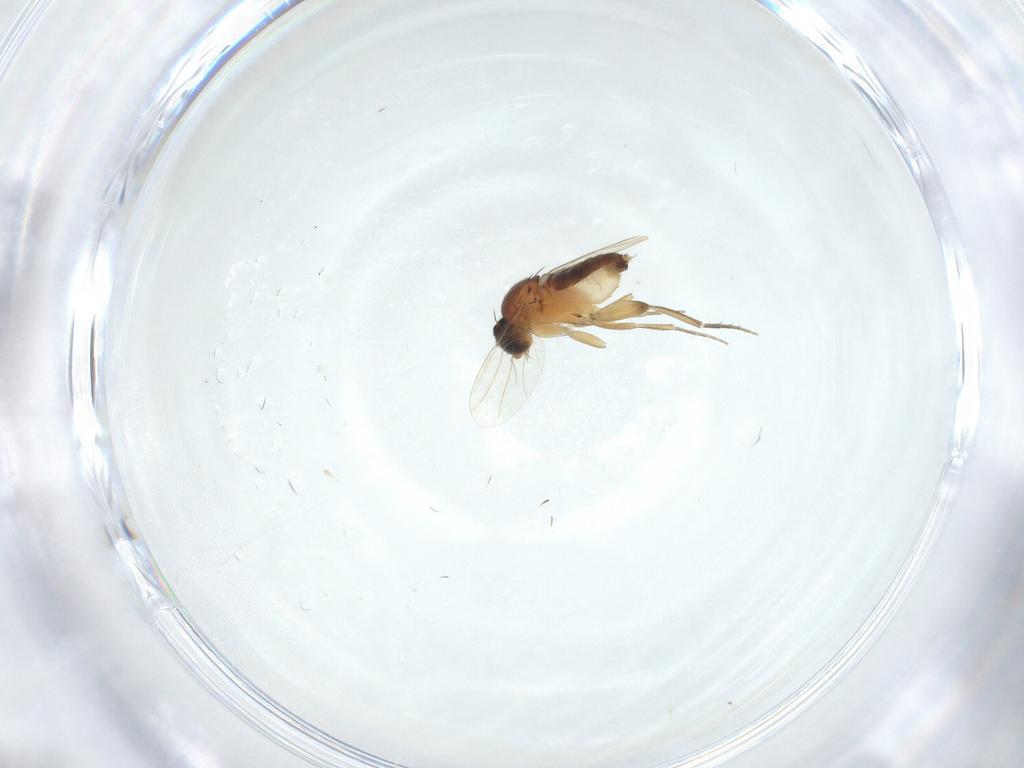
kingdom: Animalia
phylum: Arthropoda
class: Insecta
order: Diptera
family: Phoridae
